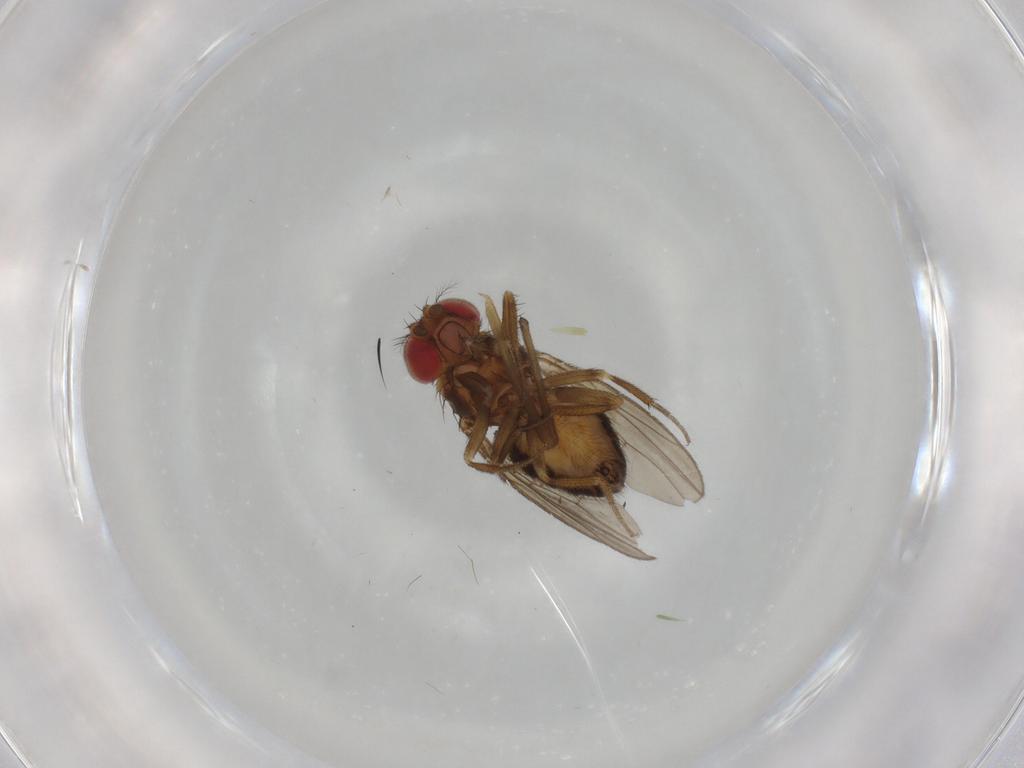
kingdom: Animalia
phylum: Arthropoda
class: Insecta
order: Diptera
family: Drosophilidae
